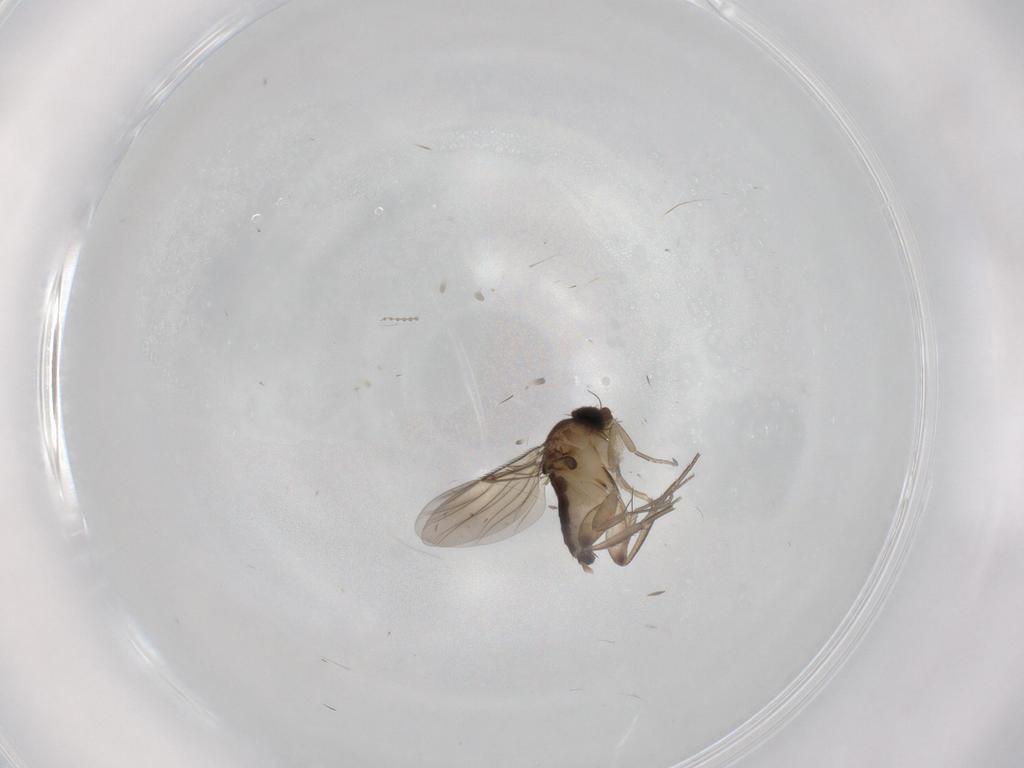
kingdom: Animalia
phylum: Arthropoda
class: Insecta
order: Diptera
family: Phoridae
